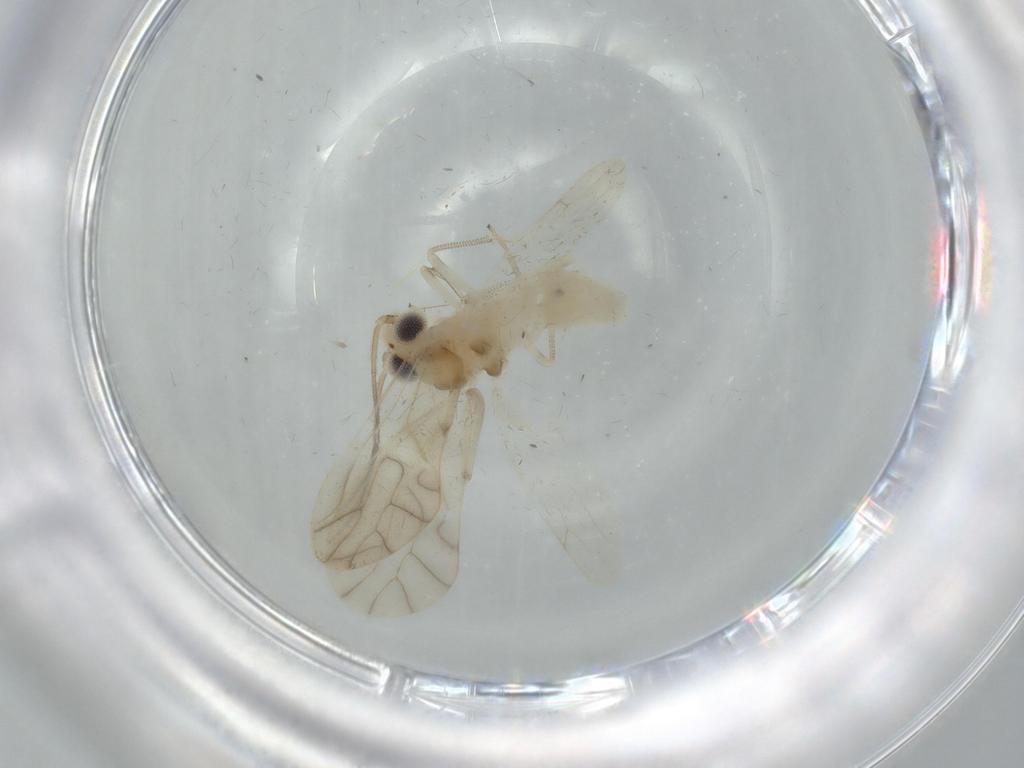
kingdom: Animalia
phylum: Arthropoda
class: Insecta
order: Psocodea
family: Caeciliusidae
